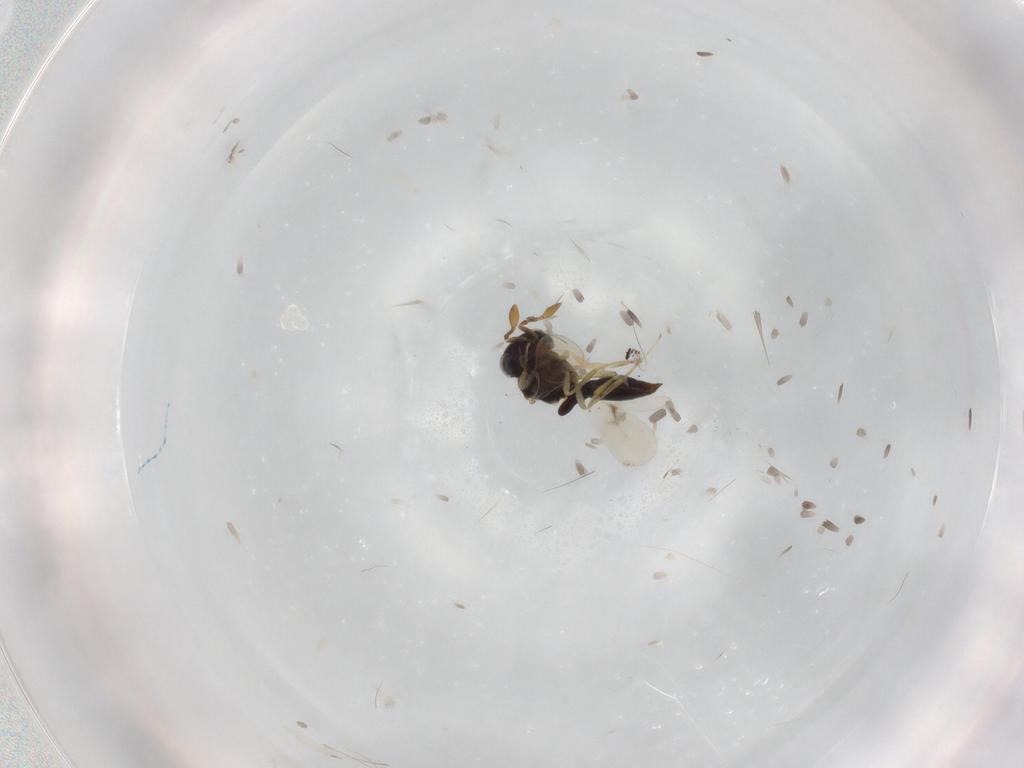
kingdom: Animalia
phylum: Arthropoda
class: Insecta
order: Hymenoptera
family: Scelionidae
